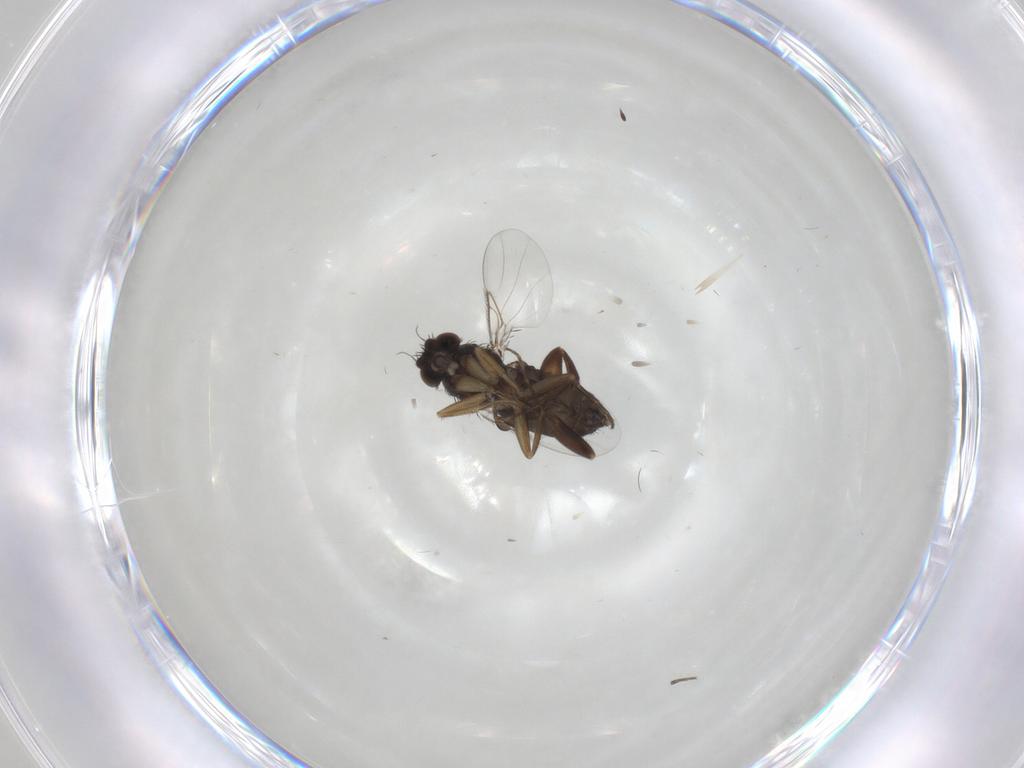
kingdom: Animalia
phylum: Arthropoda
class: Insecta
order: Diptera
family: Phoridae
